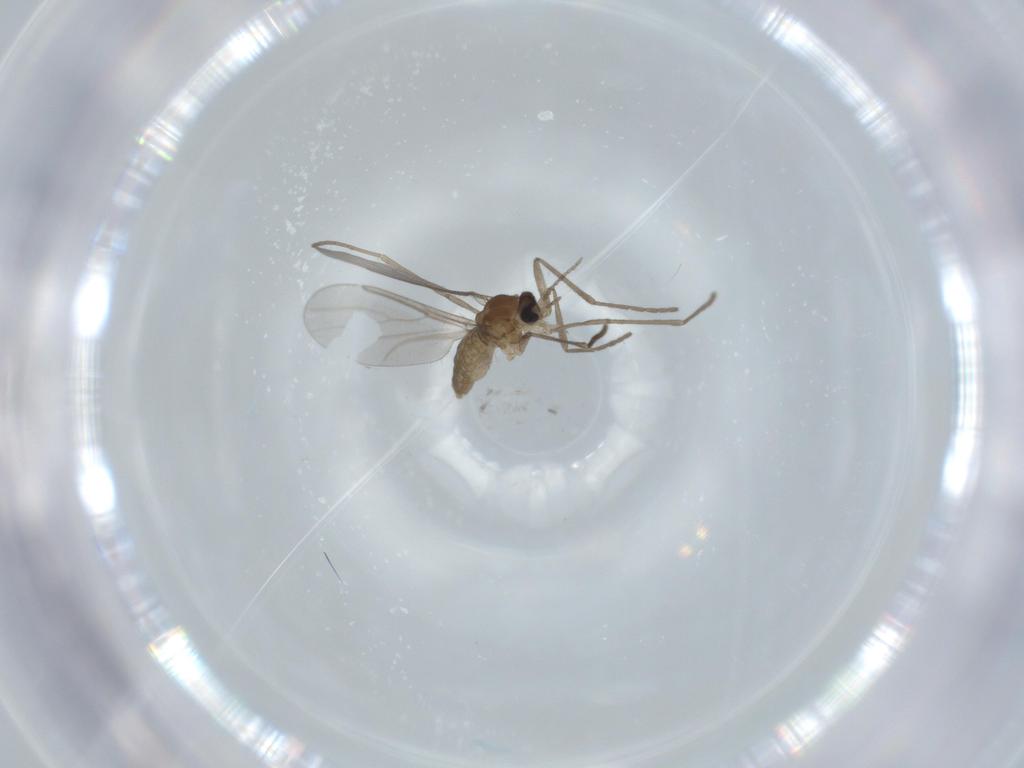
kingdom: Animalia
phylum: Arthropoda
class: Insecta
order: Diptera
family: Cecidomyiidae
